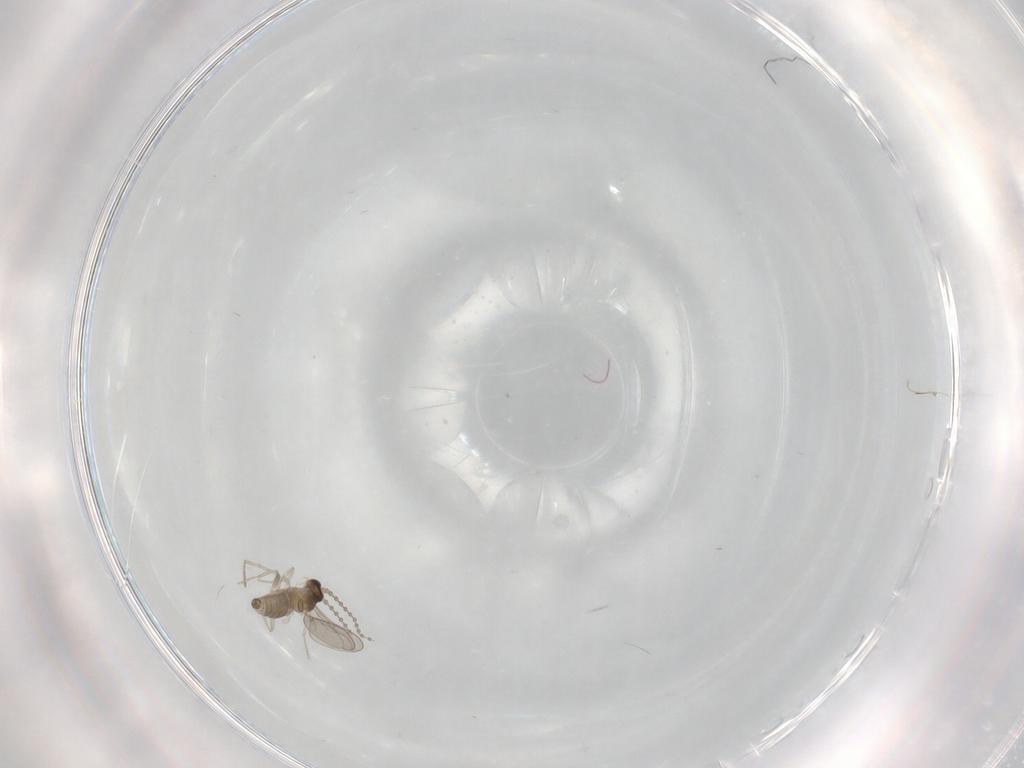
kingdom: Animalia
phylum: Arthropoda
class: Insecta
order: Diptera
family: Cecidomyiidae
